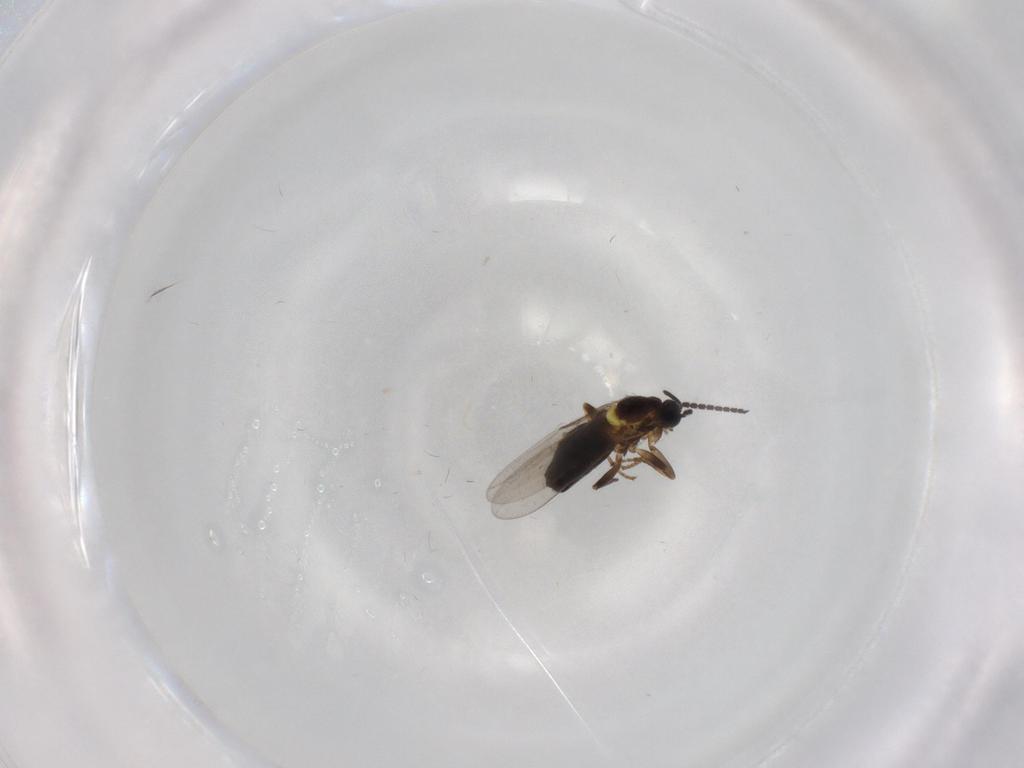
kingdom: Animalia
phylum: Arthropoda
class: Insecta
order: Diptera
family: Scatopsidae
